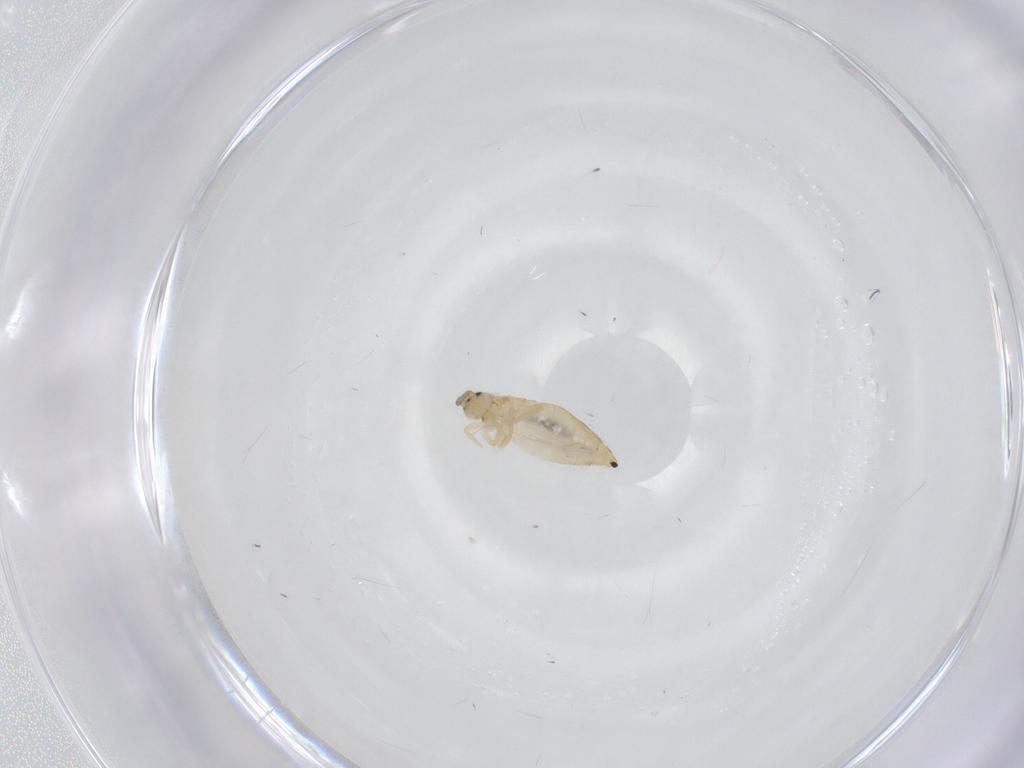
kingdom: Animalia
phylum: Arthropoda
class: Collembola
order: Entomobryomorpha
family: Entomobryidae
